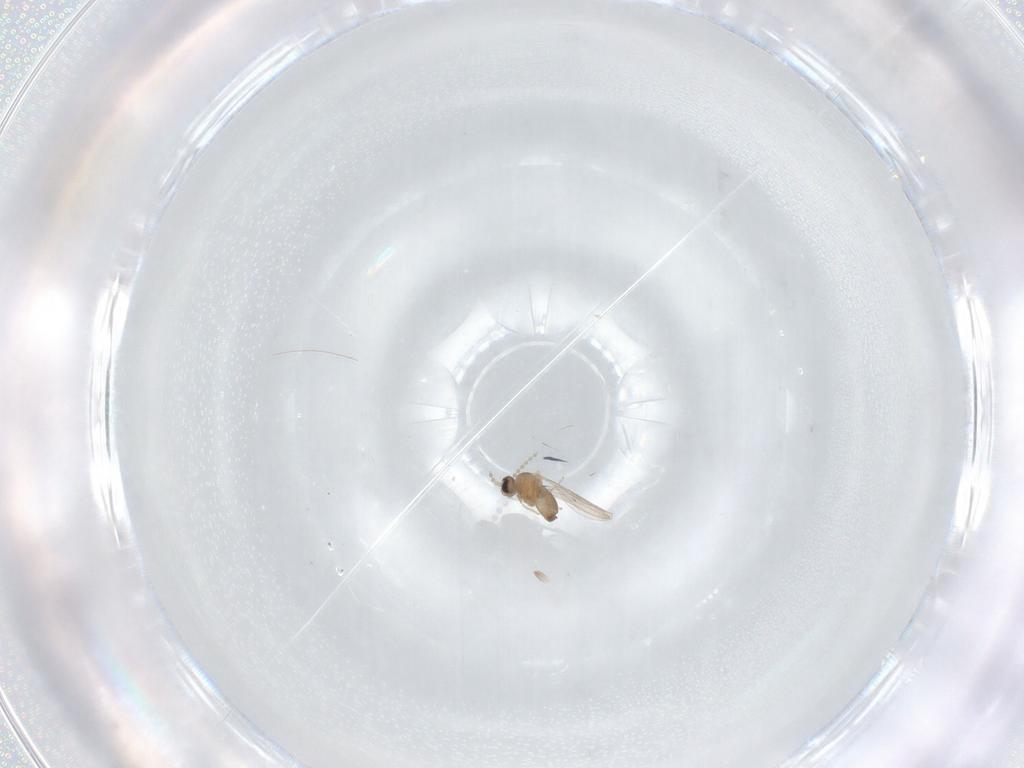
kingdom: Animalia
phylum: Arthropoda
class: Insecta
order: Diptera
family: Cecidomyiidae
